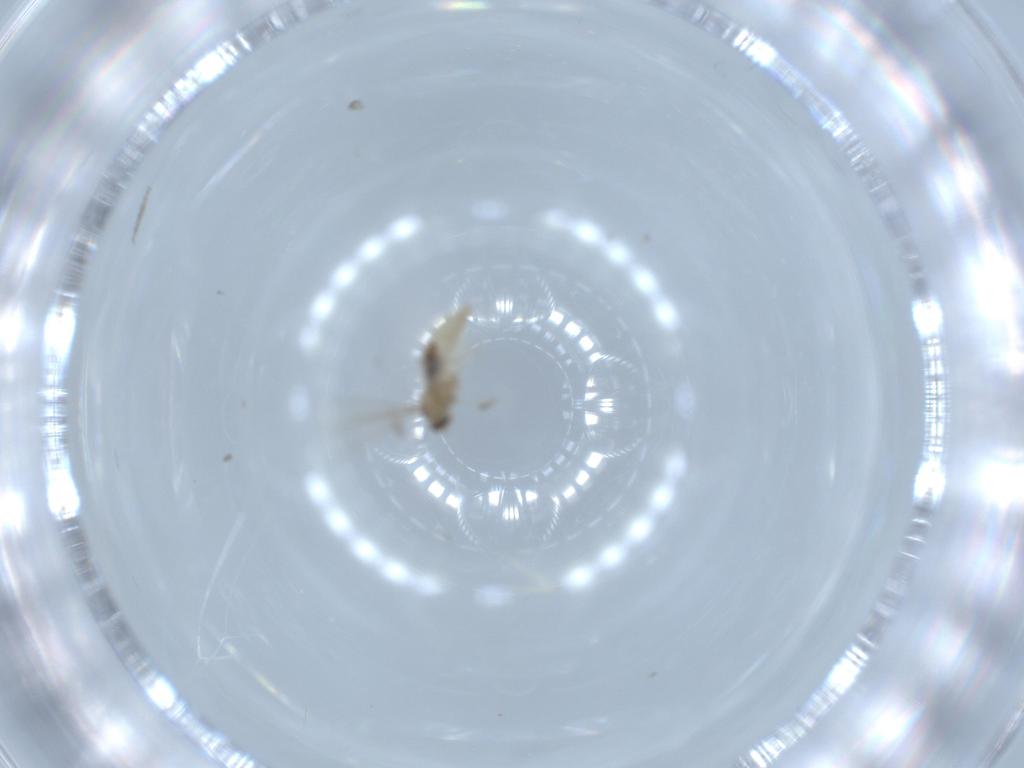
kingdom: Animalia
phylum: Arthropoda
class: Insecta
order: Diptera
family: Cecidomyiidae
